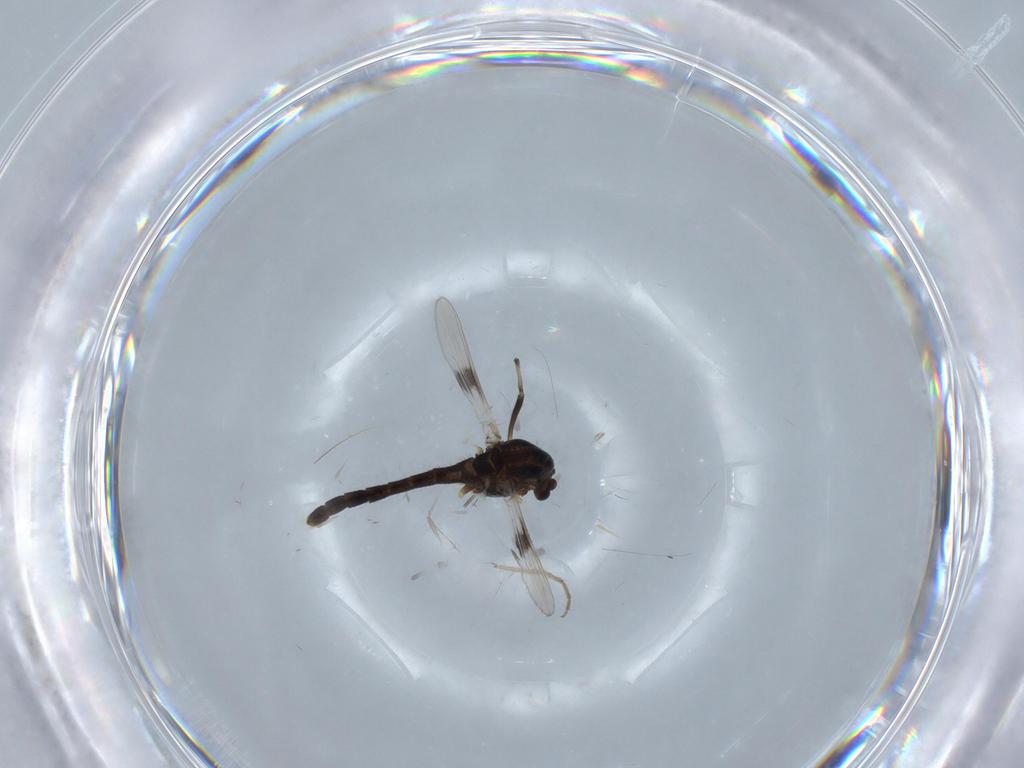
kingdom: Animalia
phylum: Arthropoda
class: Insecta
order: Diptera
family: Chironomidae
